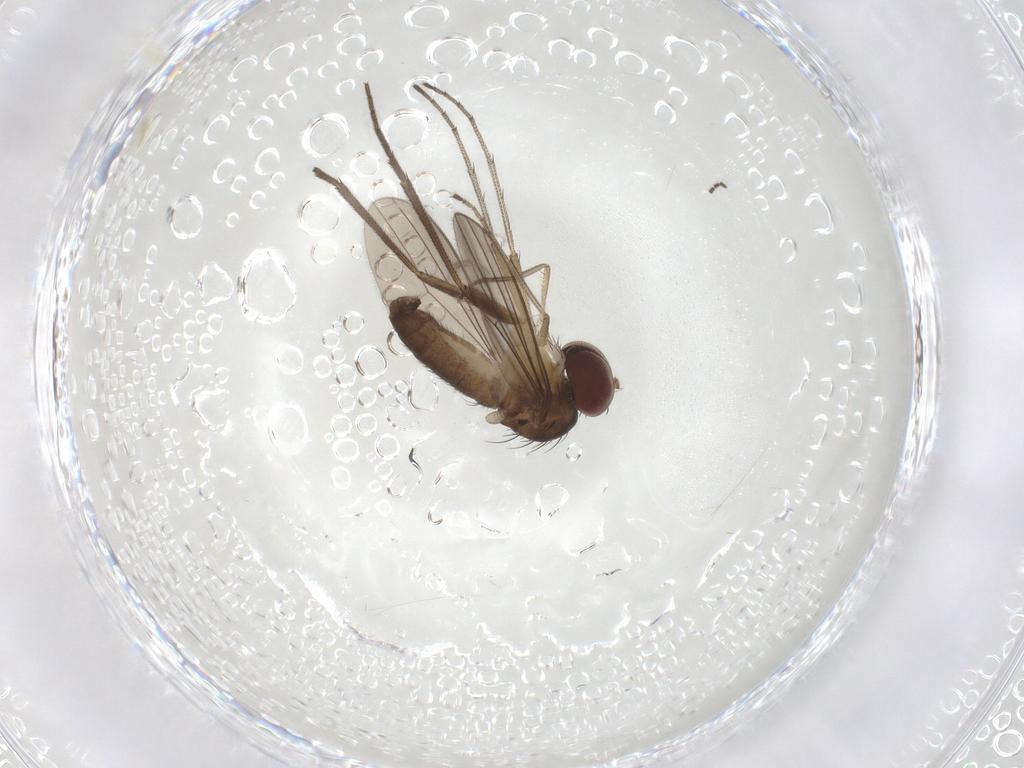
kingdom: Animalia
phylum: Arthropoda
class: Insecta
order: Diptera
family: Dolichopodidae
